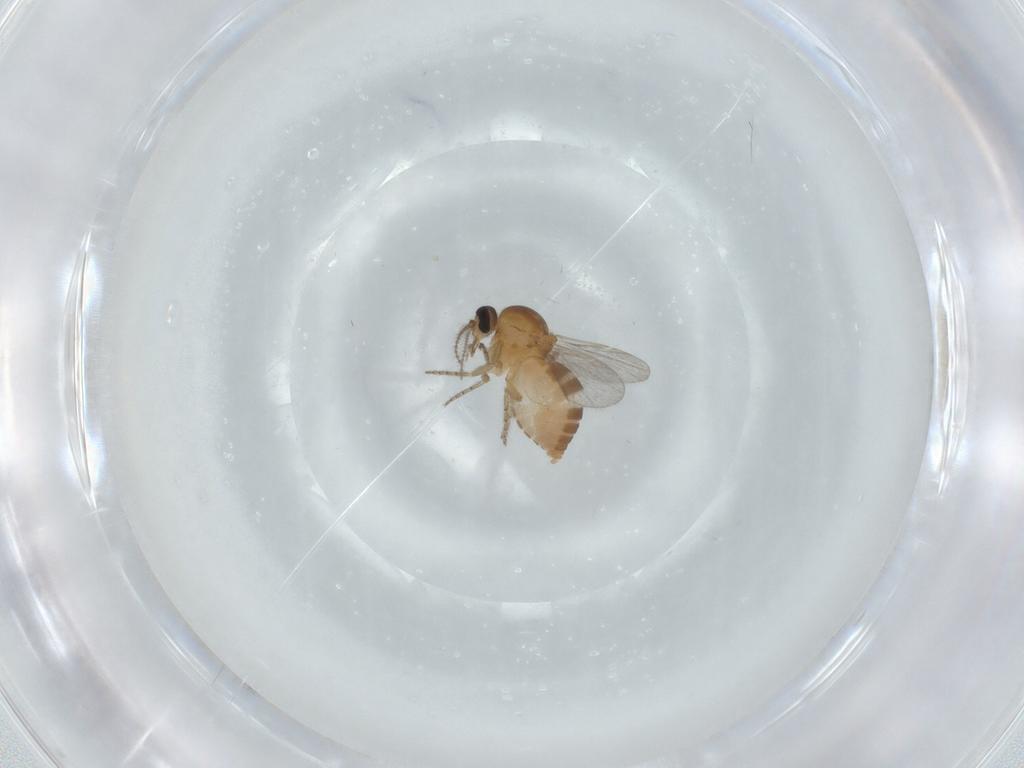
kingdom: Animalia
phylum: Arthropoda
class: Insecta
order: Diptera
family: Ceratopogonidae
